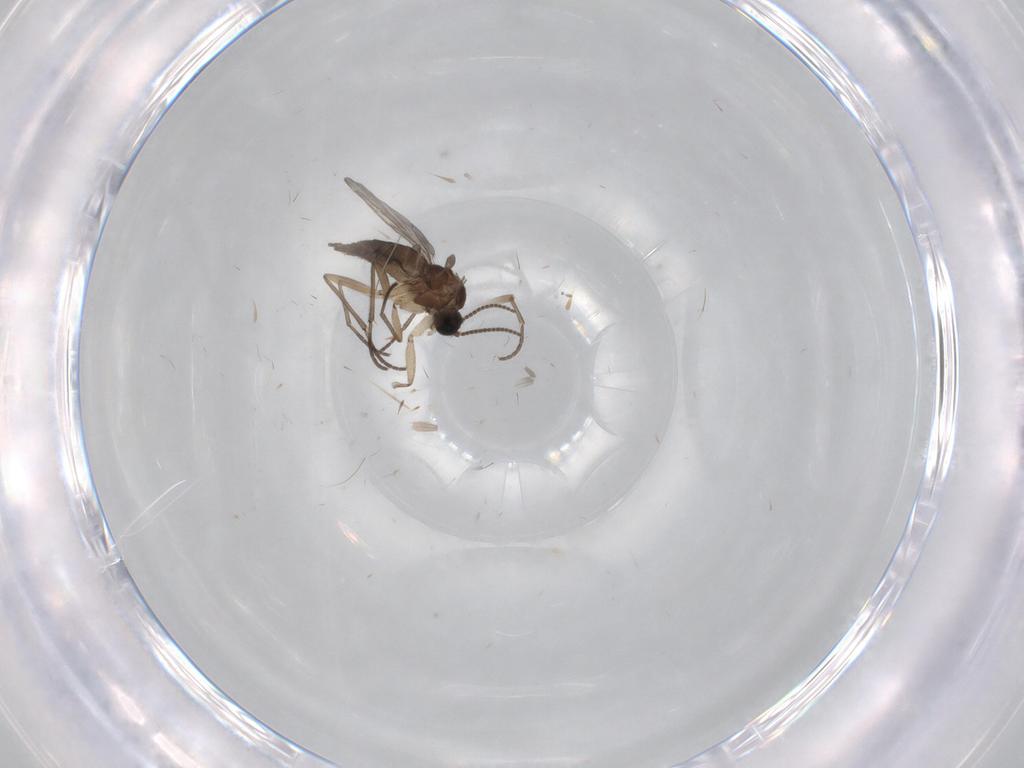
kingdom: Animalia
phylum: Arthropoda
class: Insecta
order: Diptera
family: Sciaridae
